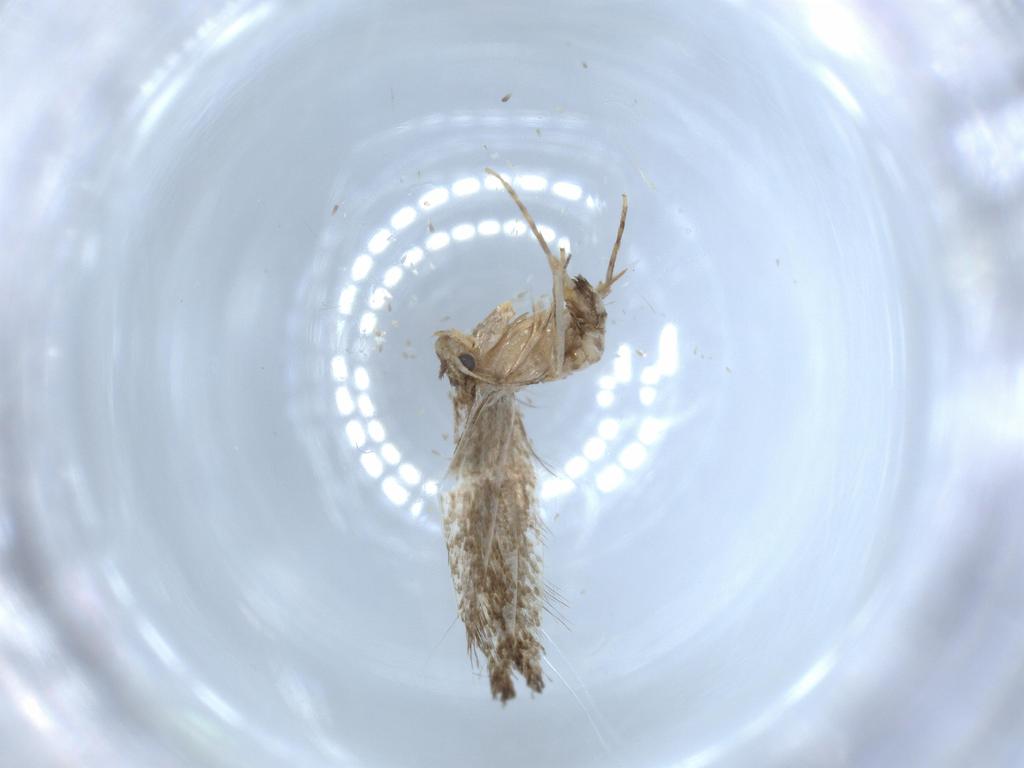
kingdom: Animalia
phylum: Arthropoda
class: Insecta
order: Lepidoptera
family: Tineidae
